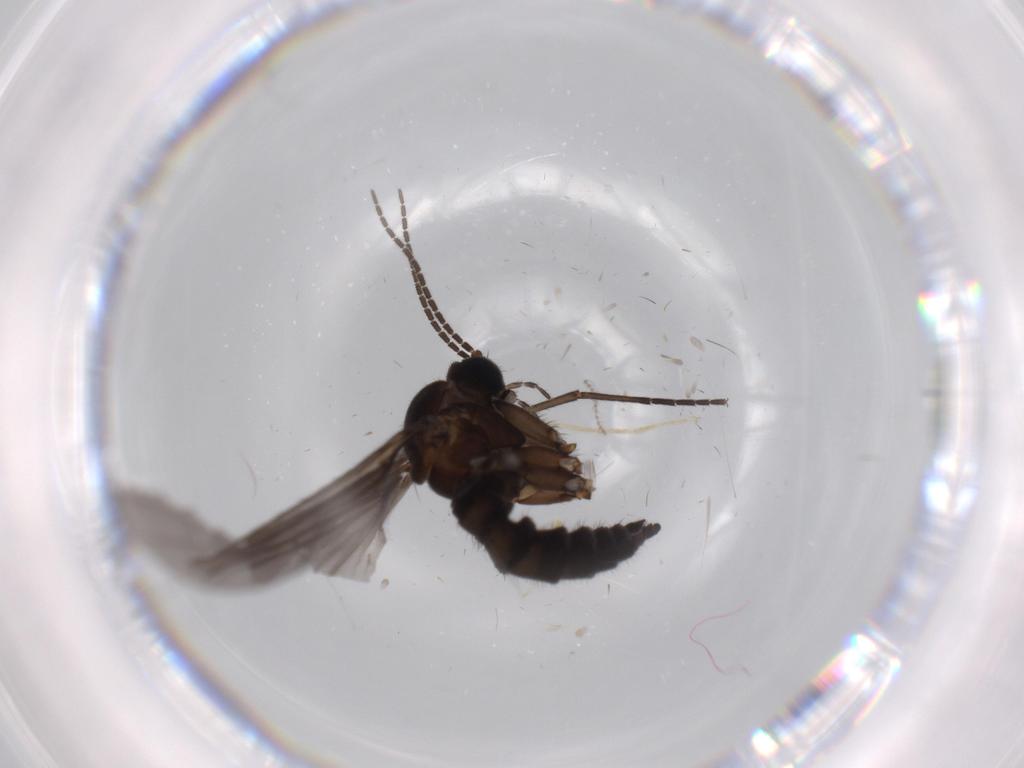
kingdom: Animalia
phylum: Arthropoda
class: Insecta
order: Diptera
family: Sciaridae
